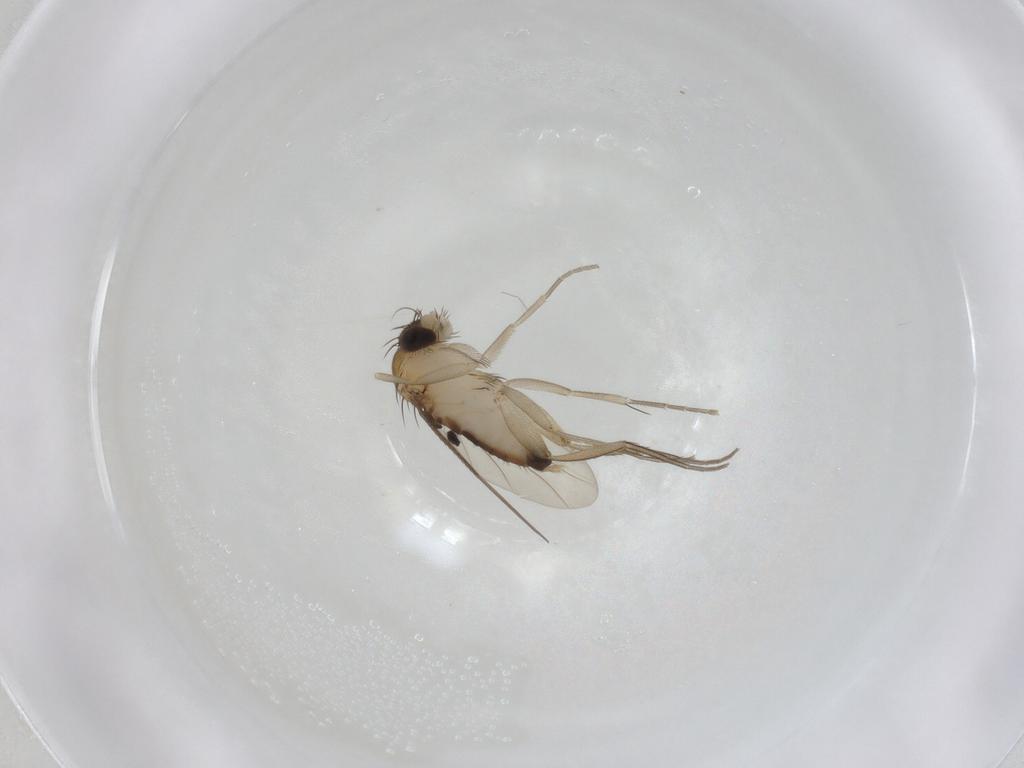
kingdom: Animalia
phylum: Arthropoda
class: Insecta
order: Diptera
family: Phoridae
